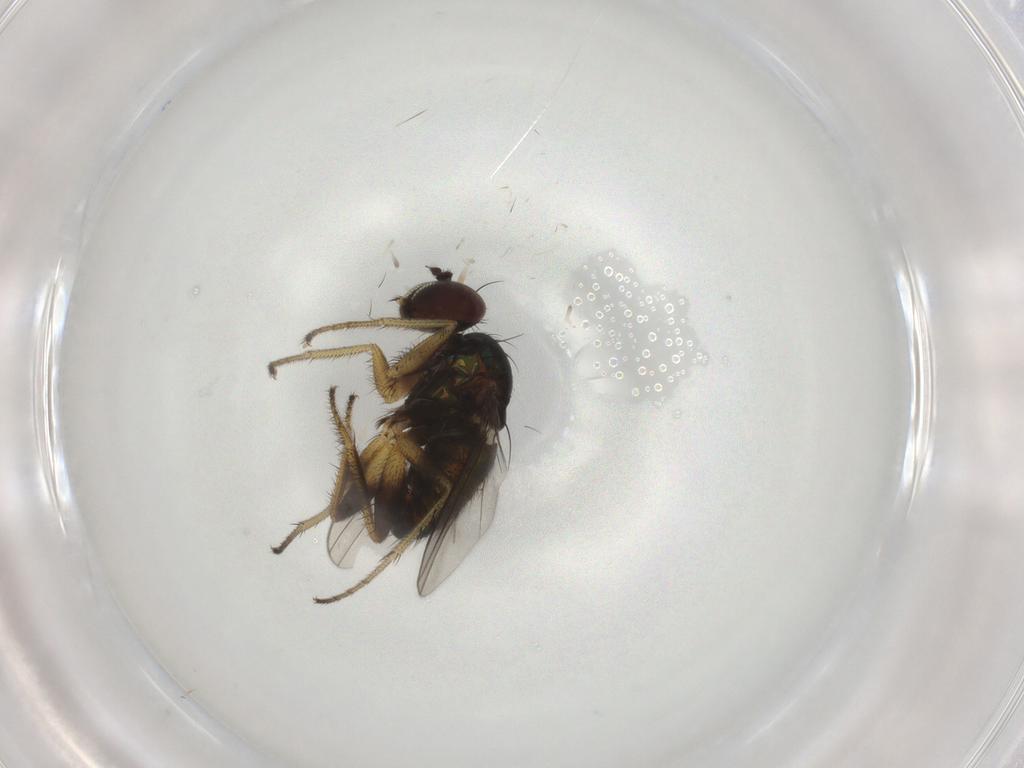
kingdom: Animalia
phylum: Arthropoda
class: Insecta
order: Diptera
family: Dolichopodidae
